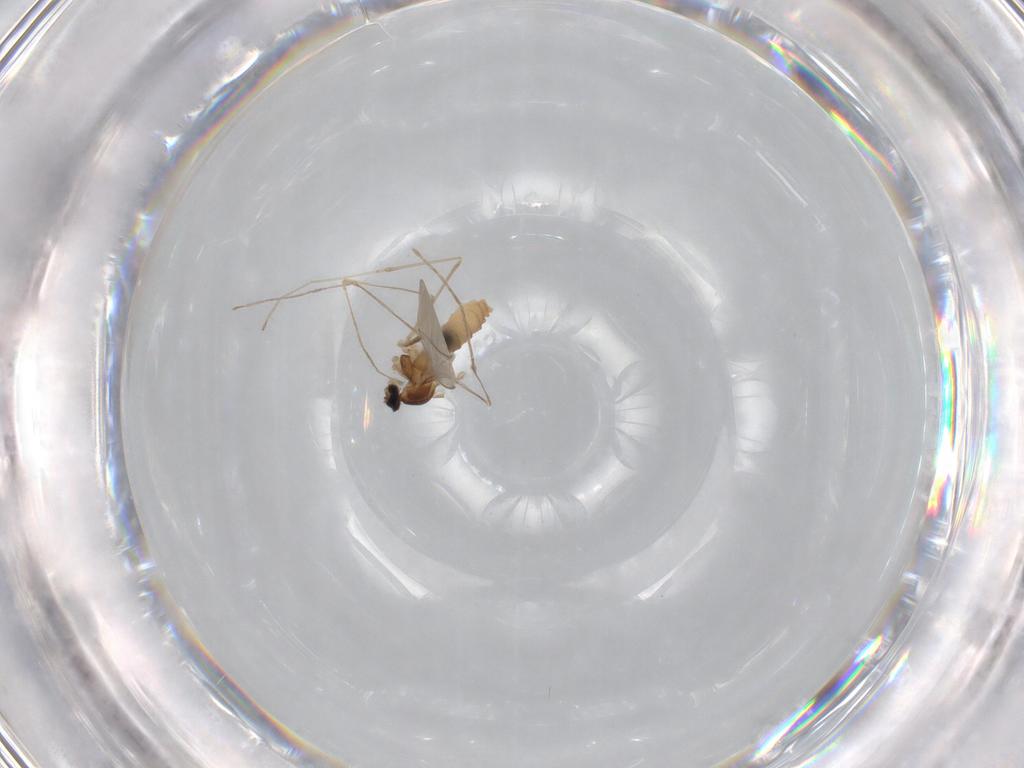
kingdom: Animalia
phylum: Arthropoda
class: Insecta
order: Diptera
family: Cecidomyiidae
